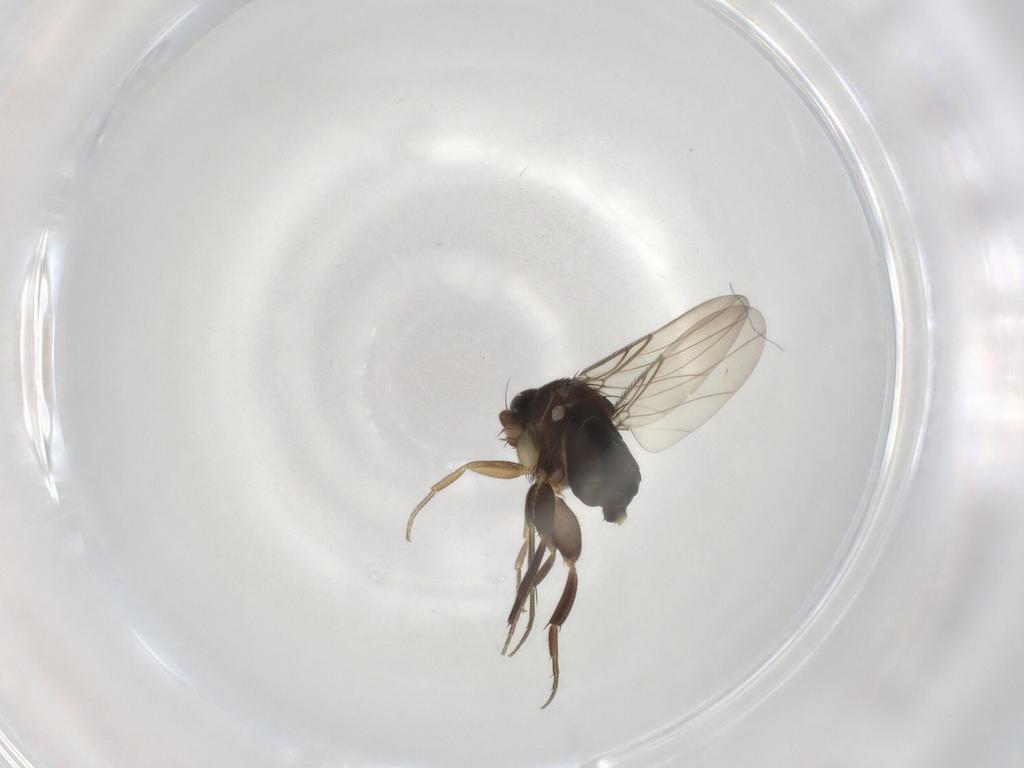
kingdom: Animalia
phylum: Arthropoda
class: Insecta
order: Diptera
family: Phoridae
